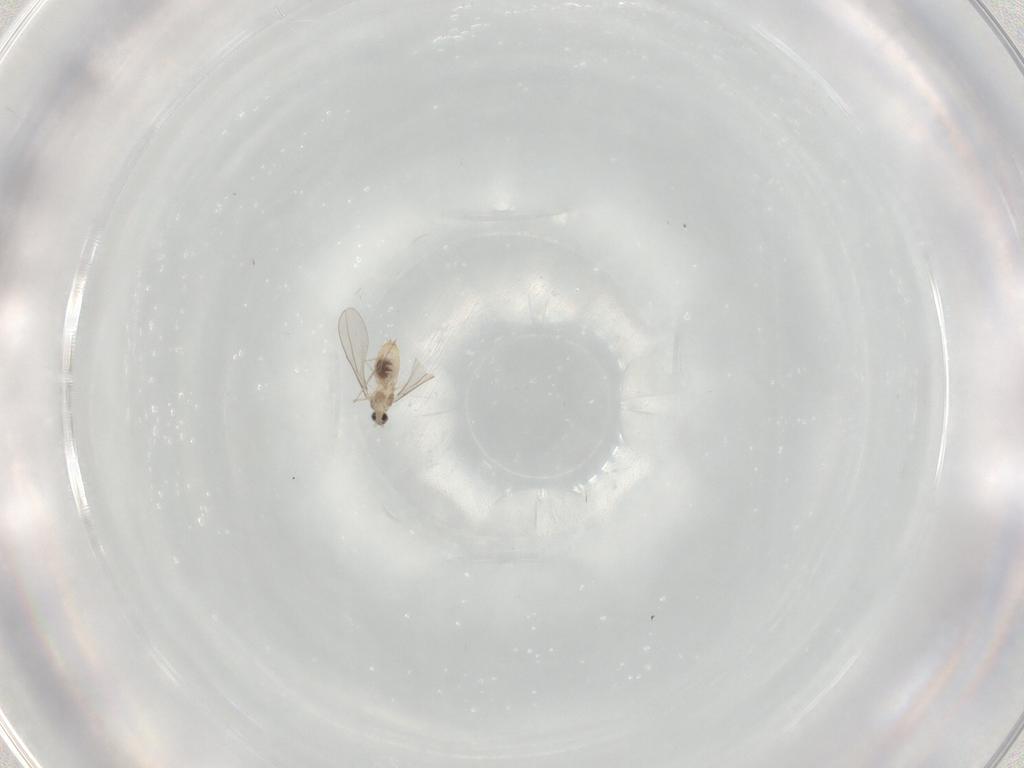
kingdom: Animalia
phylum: Arthropoda
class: Insecta
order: Diptera
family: Cecidomyiidae
